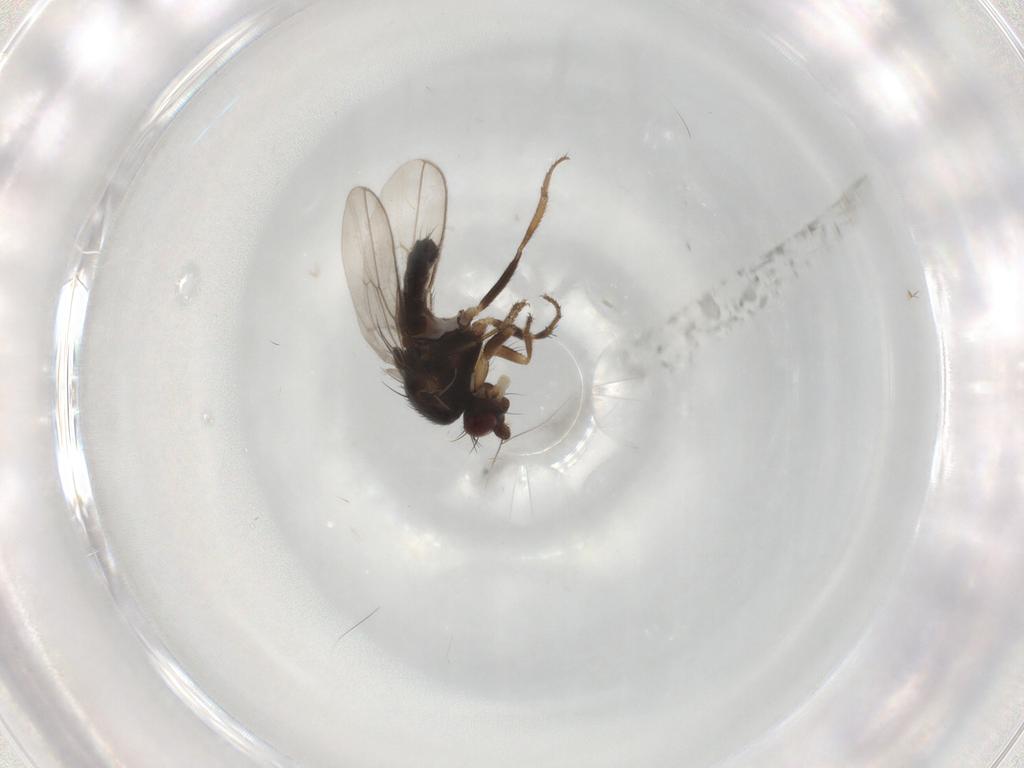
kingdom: Animalia
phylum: Arthropoda
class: Insecta
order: Diptera
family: Sphaeroceridae
